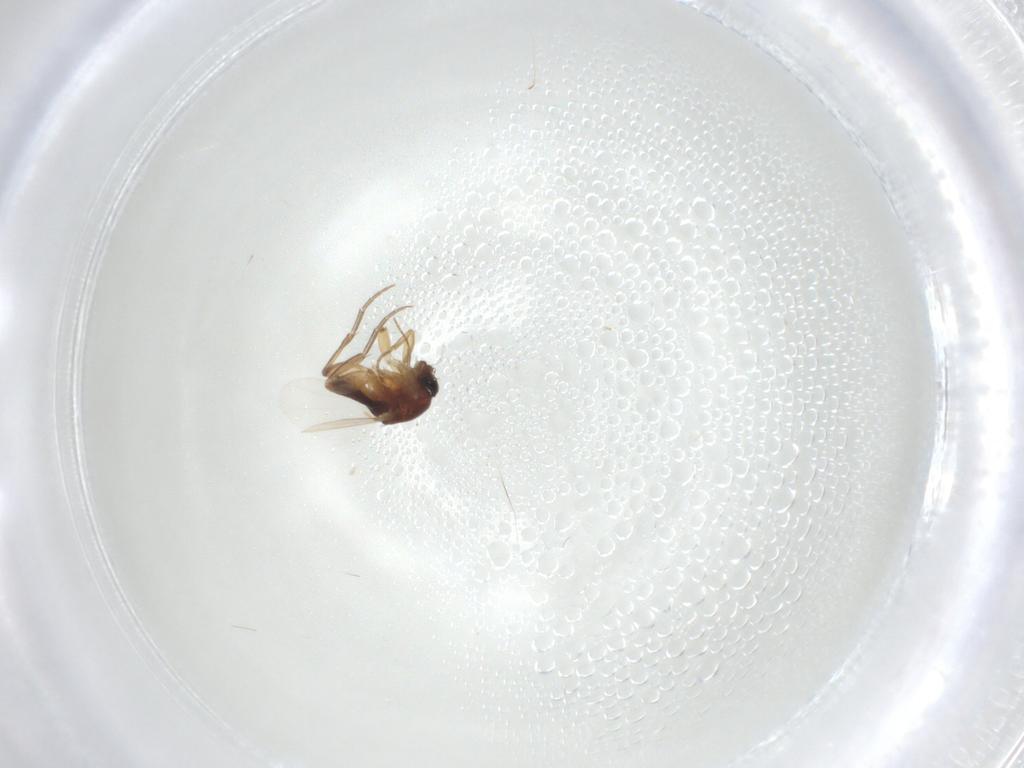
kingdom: Animalia
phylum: Arthropoda
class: Insecta
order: Diptera
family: Phoridae
